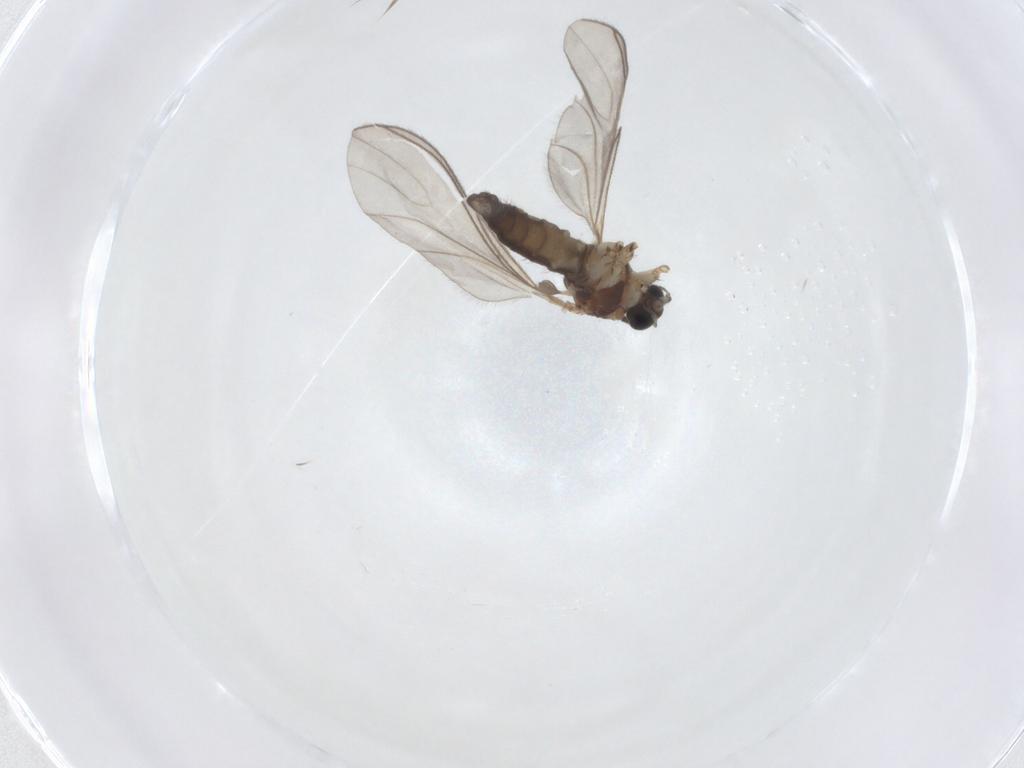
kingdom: Animalia
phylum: Arthropoda
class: Insecta
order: Diptera
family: Sciaridae
